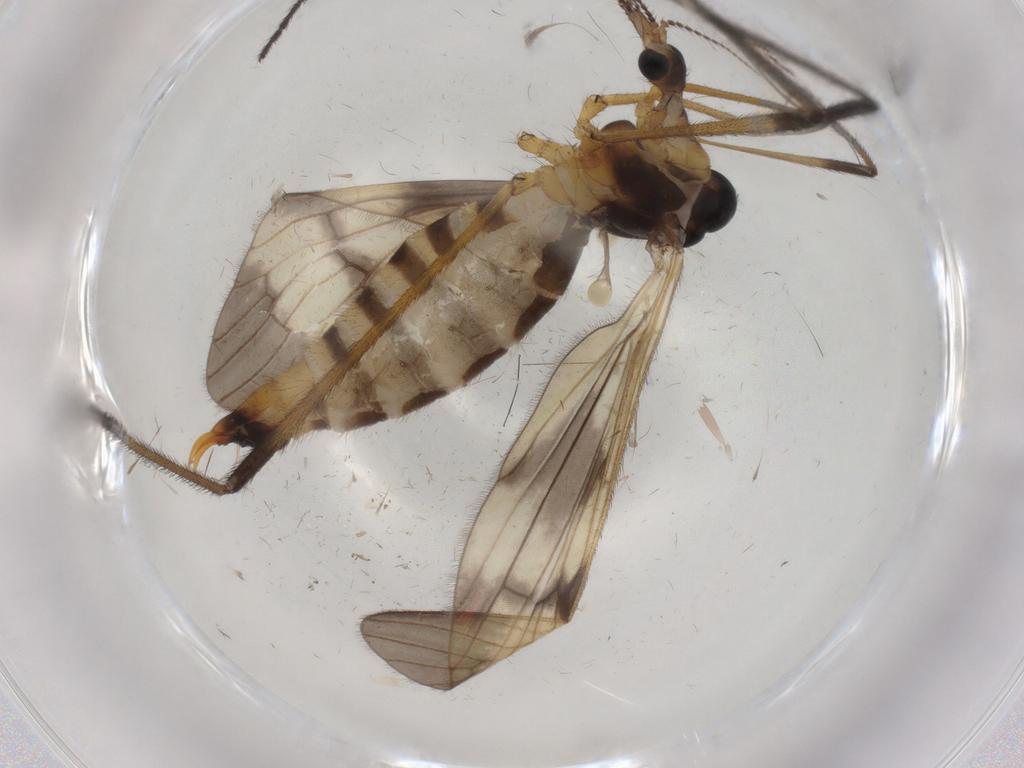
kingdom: Animalia
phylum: Arthropoda
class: Insecta
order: Diptera
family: Limoniidae
